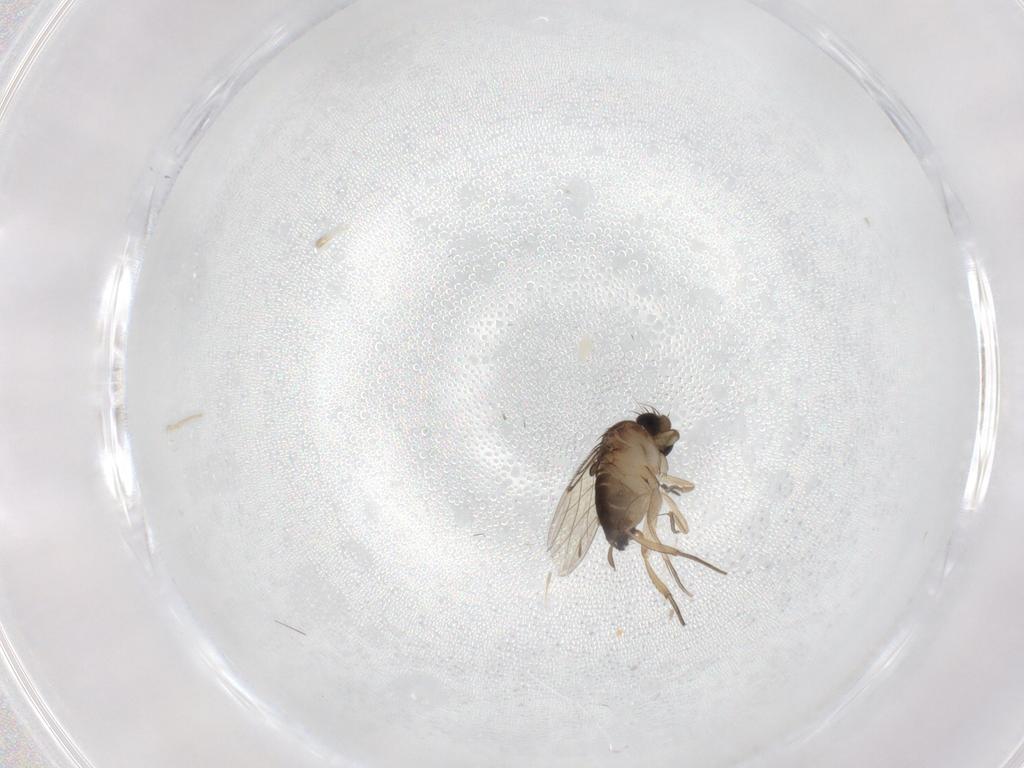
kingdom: Animalia
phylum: Arthropoda
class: Insecta
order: Diptera
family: Sciaridae
